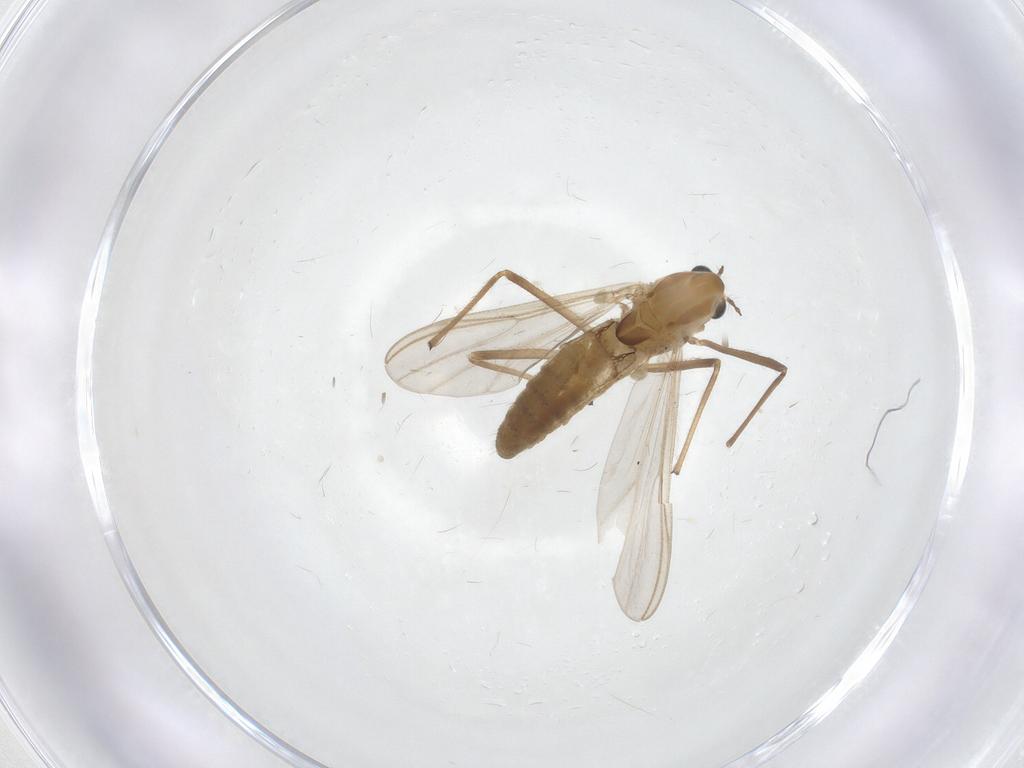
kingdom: Animalia
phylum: Arthropoda
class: Insecta
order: Diptera
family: Chironomidae
